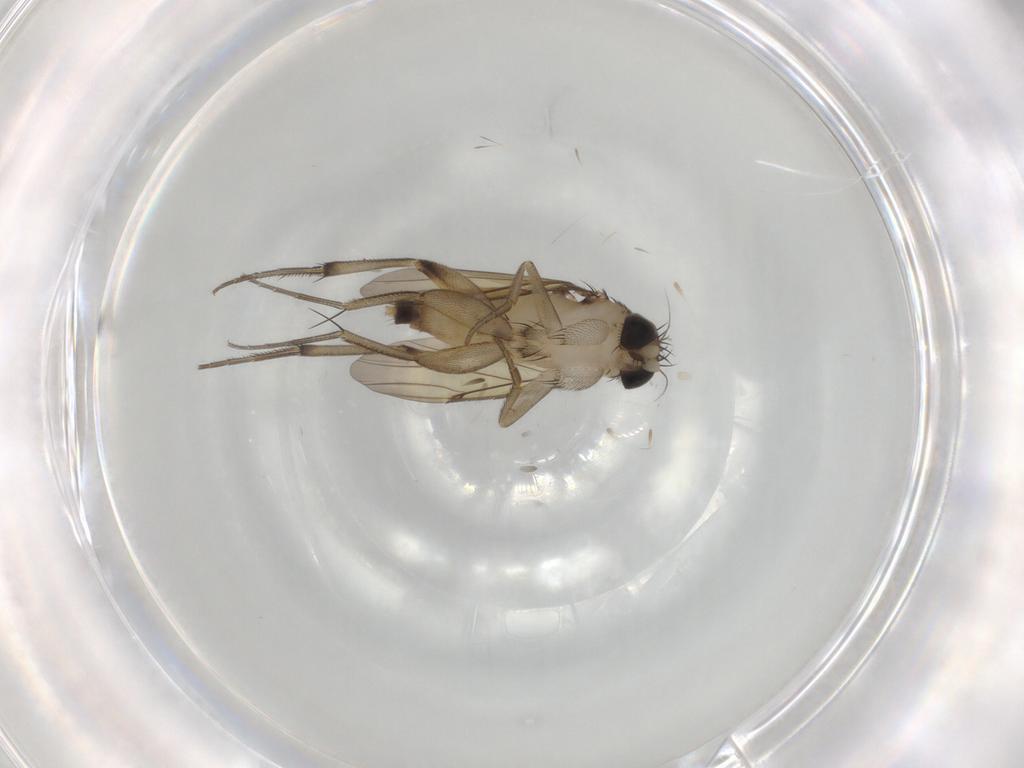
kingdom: Animalia
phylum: Arthropoda
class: Insecta
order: Diptera
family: Phoridae
